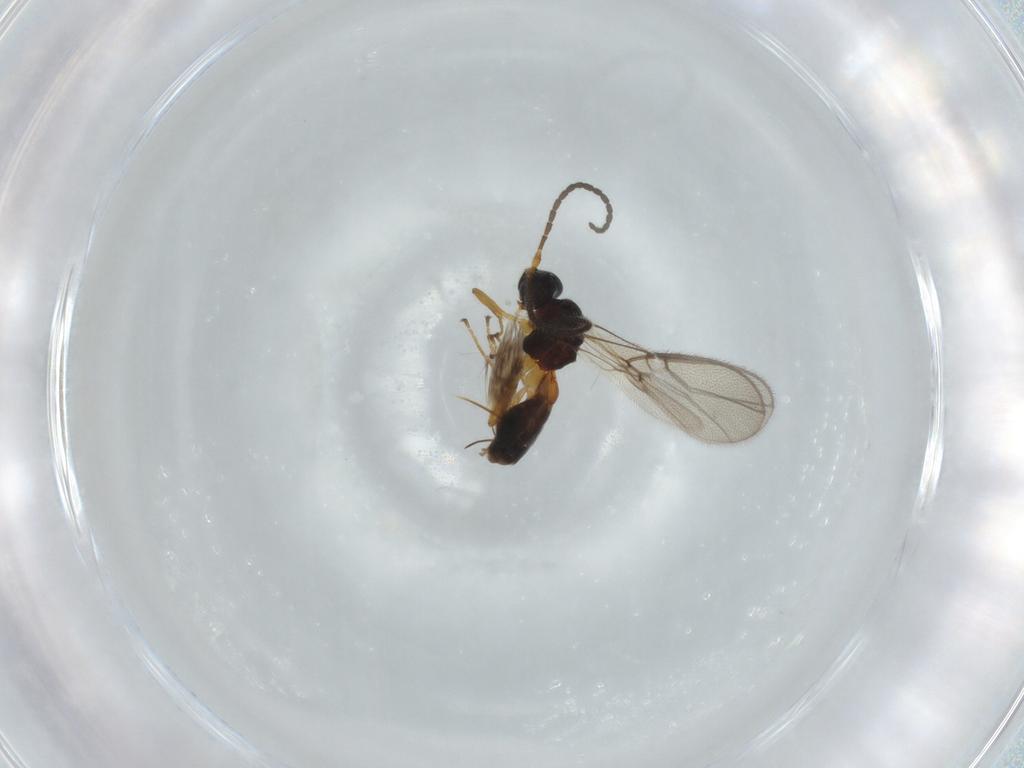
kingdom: Animalia
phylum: Arthropoda
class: Insecta
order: Hymenoptera
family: Braconidae
